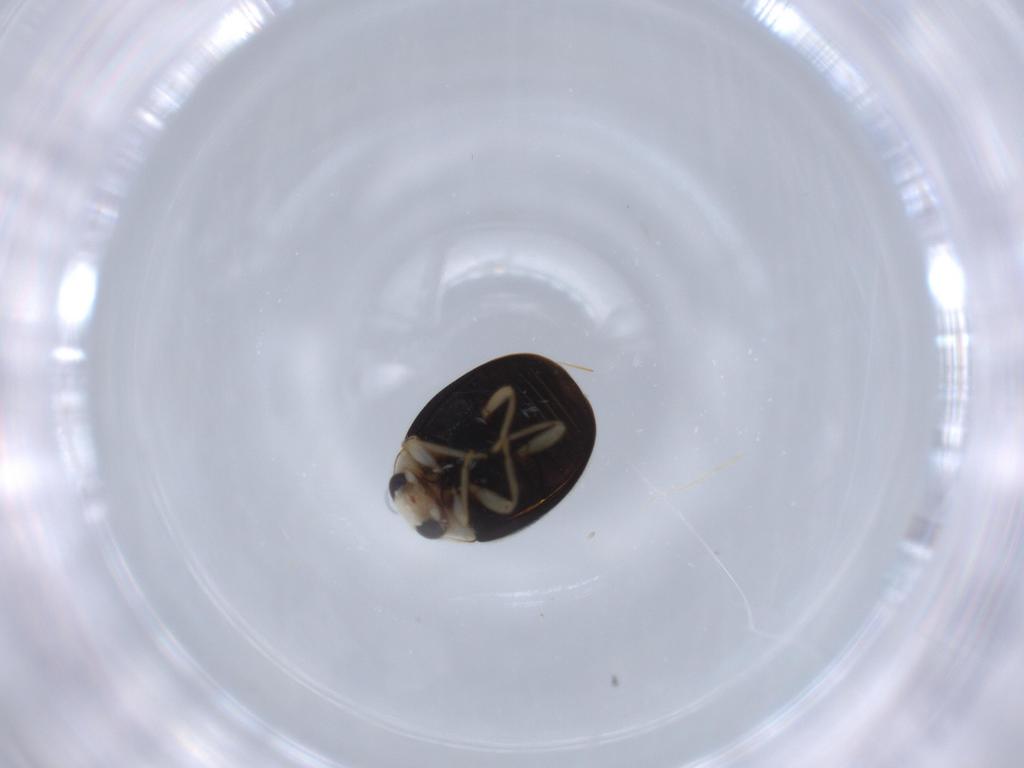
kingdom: Animalia
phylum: Arthropoda
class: Insecta
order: Coleoptera
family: Coccinellidae
